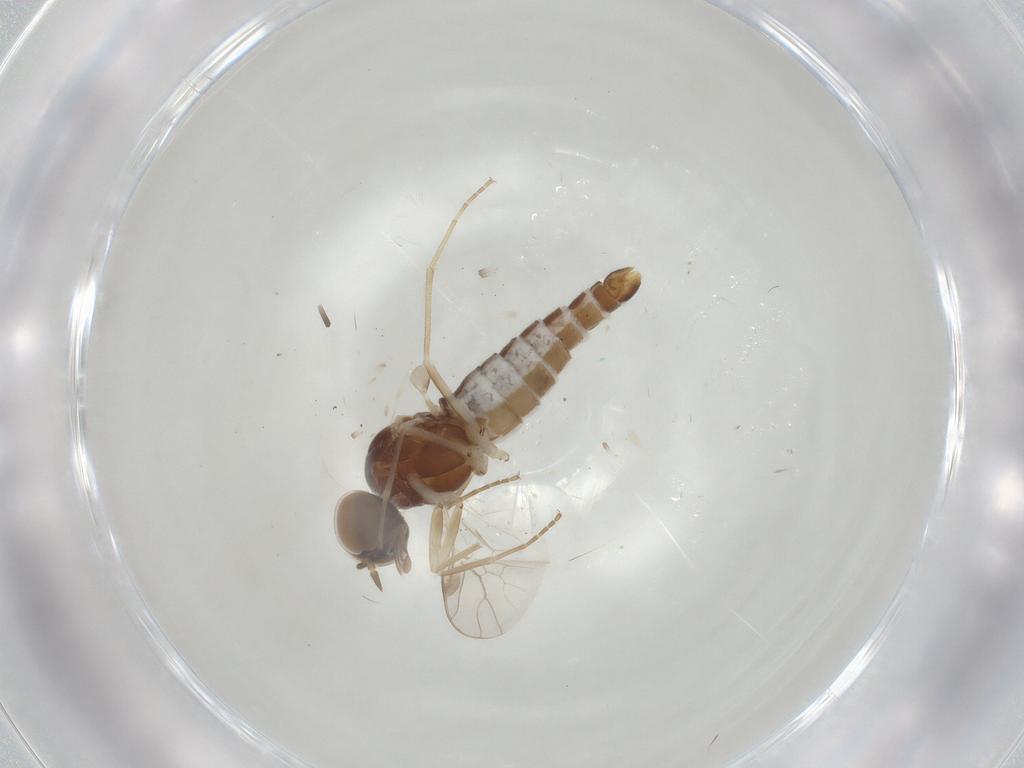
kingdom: Animalia
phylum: Arthropoda
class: Insecta
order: Diptera
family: Scenopinidae
